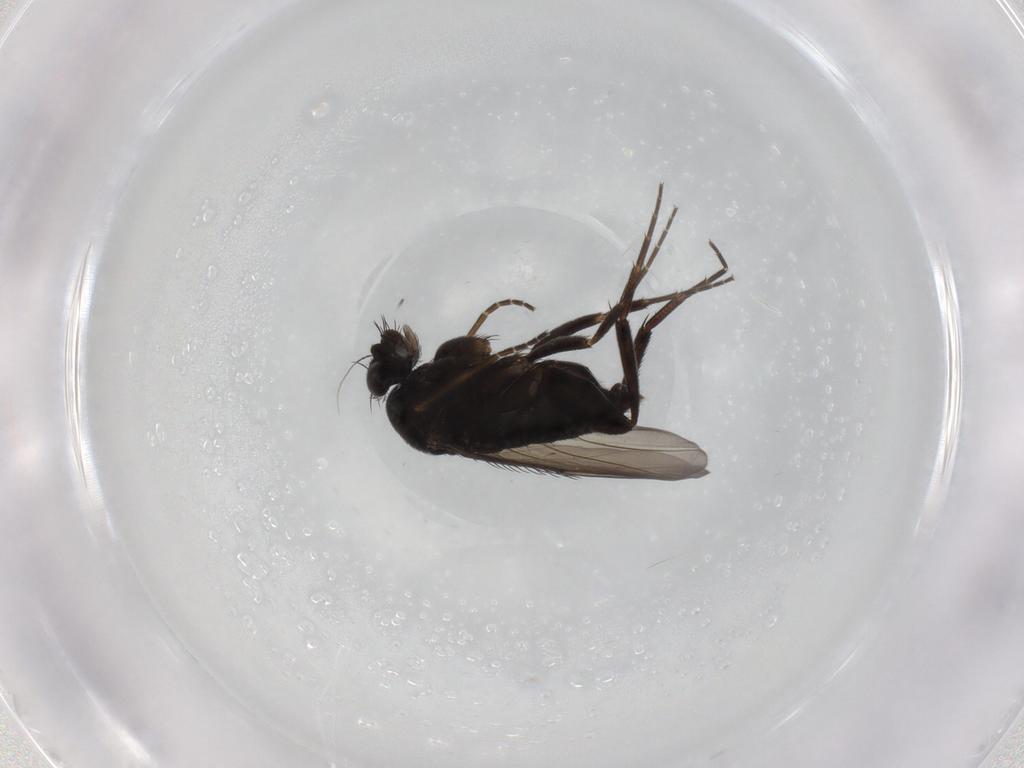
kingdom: Animalia
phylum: Arthropoda
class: Insecta
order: Diptera
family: Phoridae
